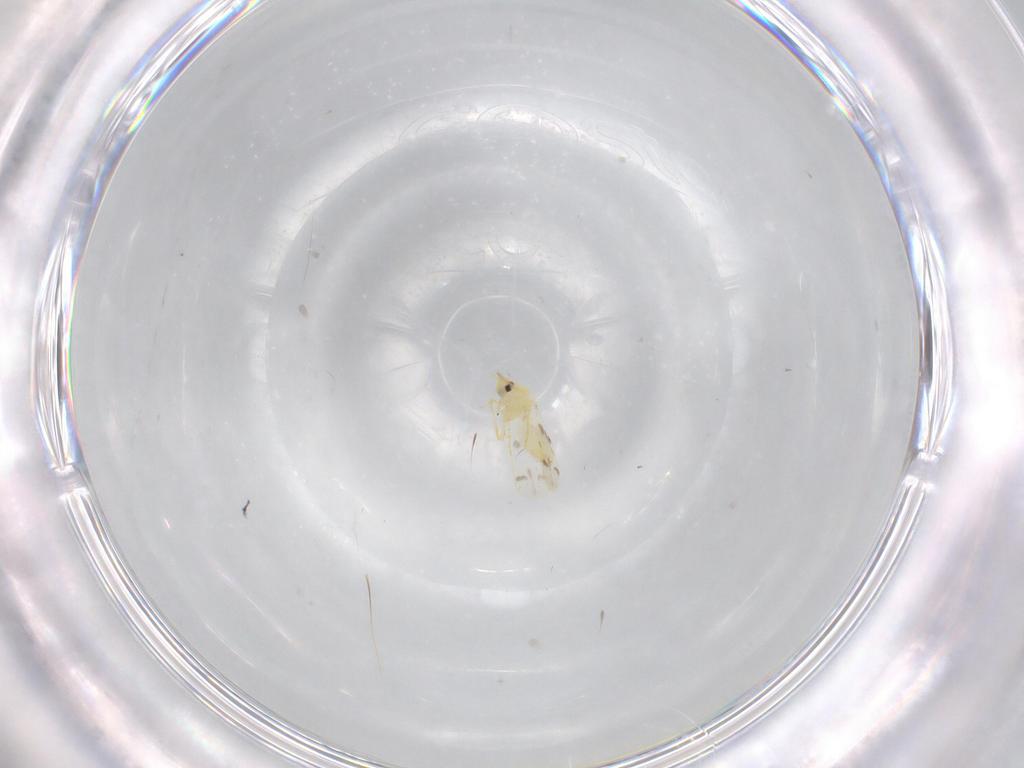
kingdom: Animalia
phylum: Arthropoda
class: Insecta
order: Hemiptera
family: Aleyrodidae
